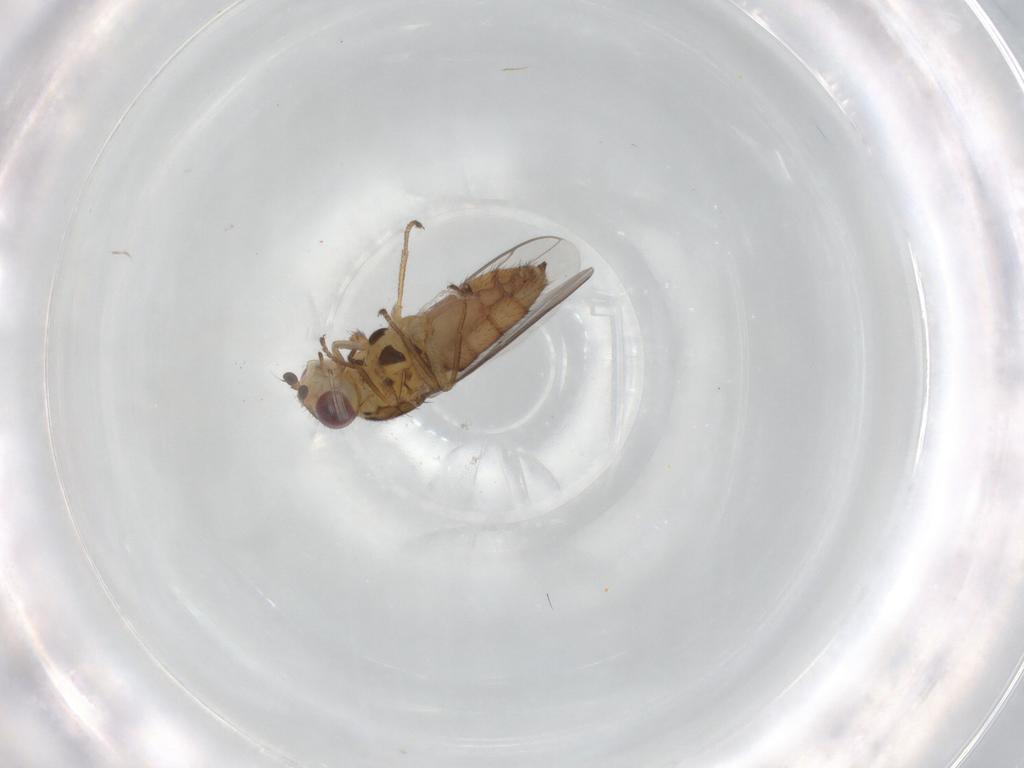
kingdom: Animalia
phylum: Arthropoda
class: Insecta
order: Diptera
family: Chloropidae
